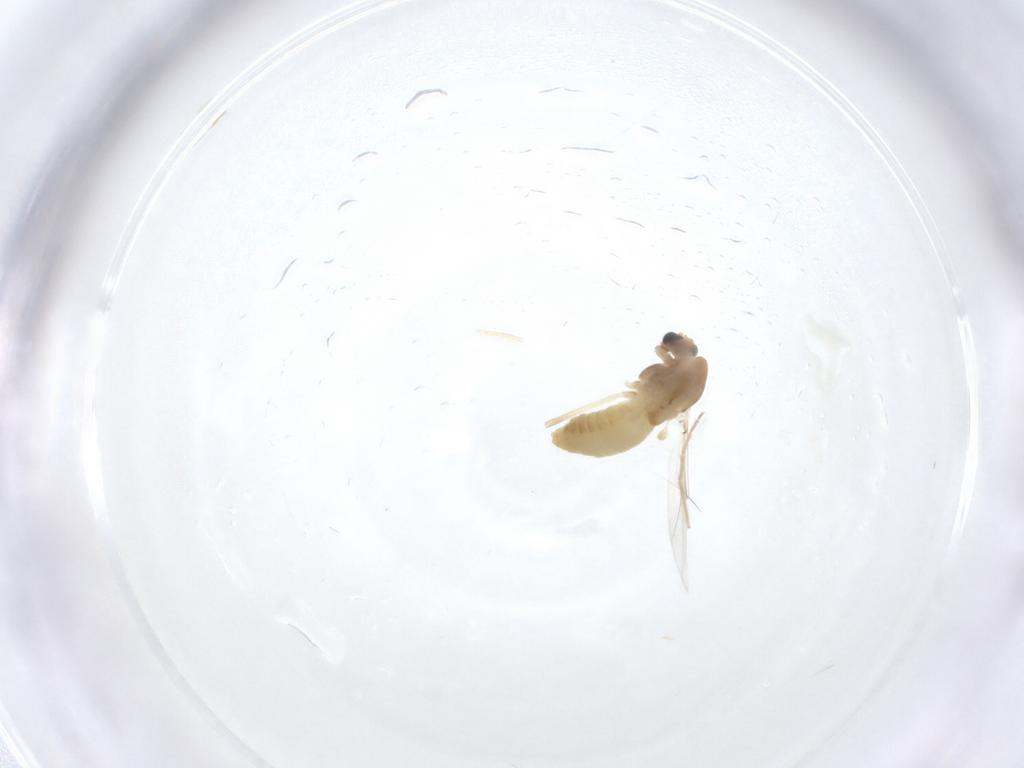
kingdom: Animalia
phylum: Arthropoda
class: Insecta
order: Diptera
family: Chironomidae
